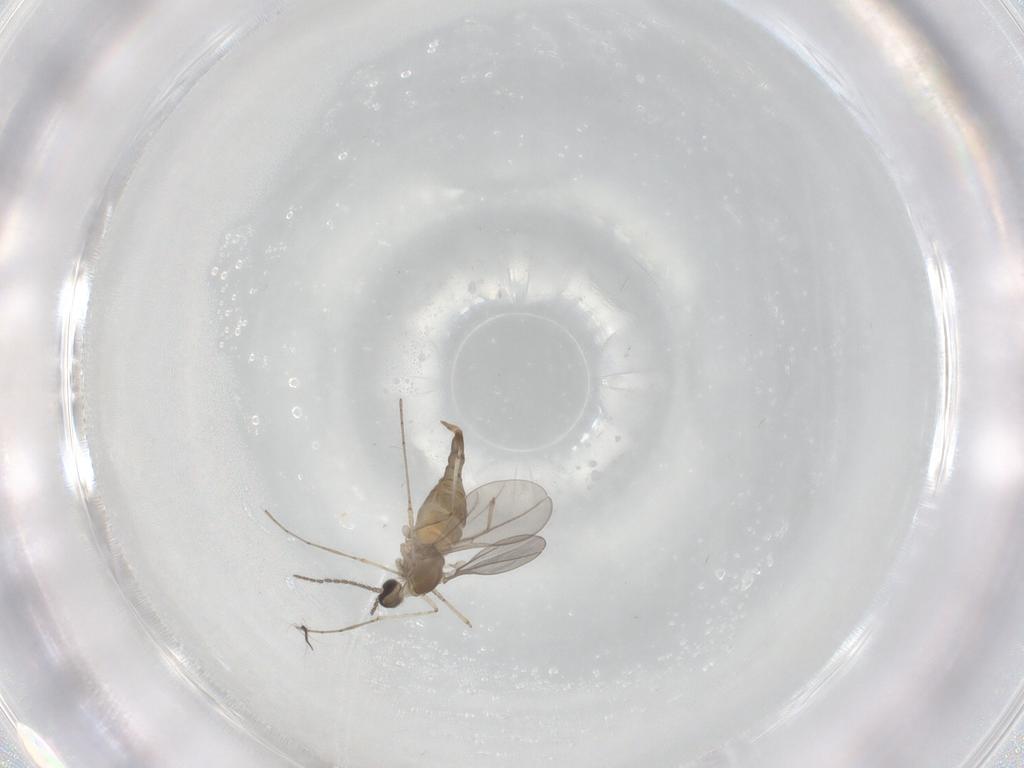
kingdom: Animalia
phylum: Arthropoda
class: Insecta
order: Diptera
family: Cecidomyiidae
